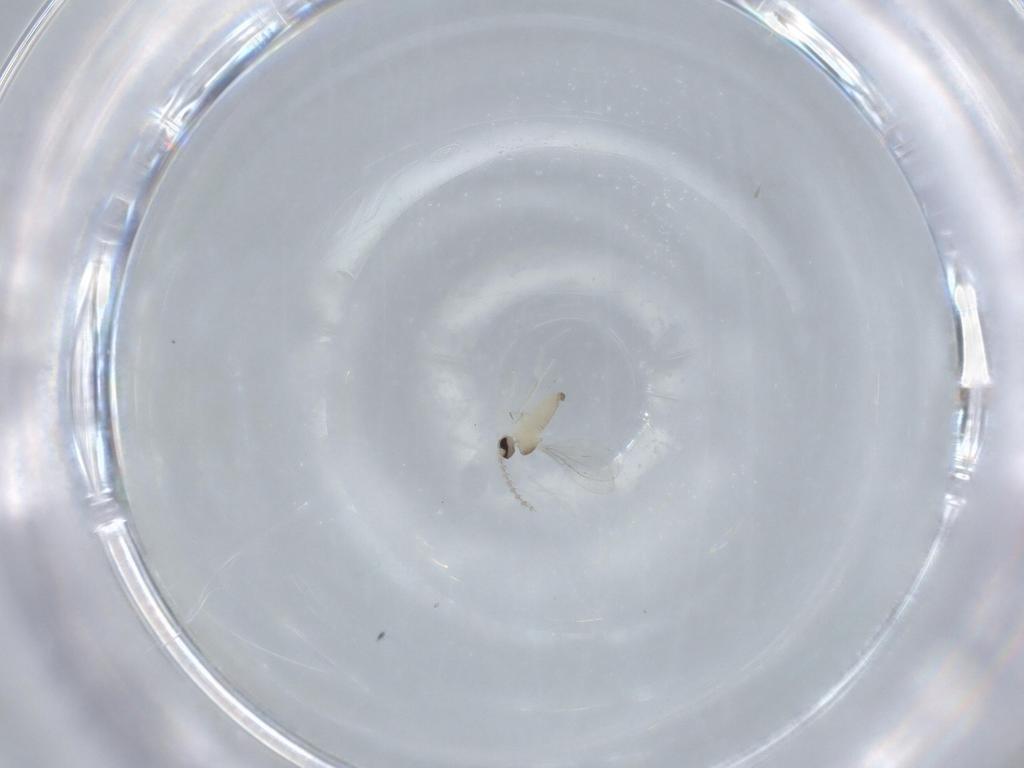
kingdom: Animalia
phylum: Arthropoda
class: Insecta
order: Diptera
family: Cecidomyiidae
